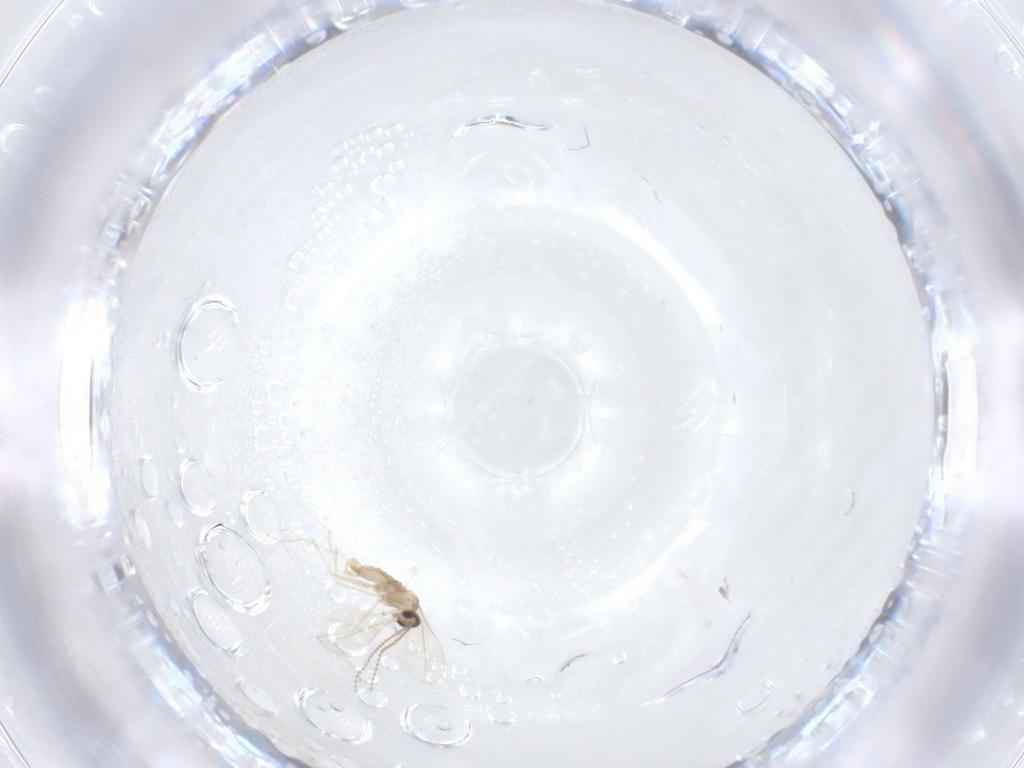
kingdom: Animalia
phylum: Arthropoda
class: Insecta
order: Diptera
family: Cecidomyiidae
